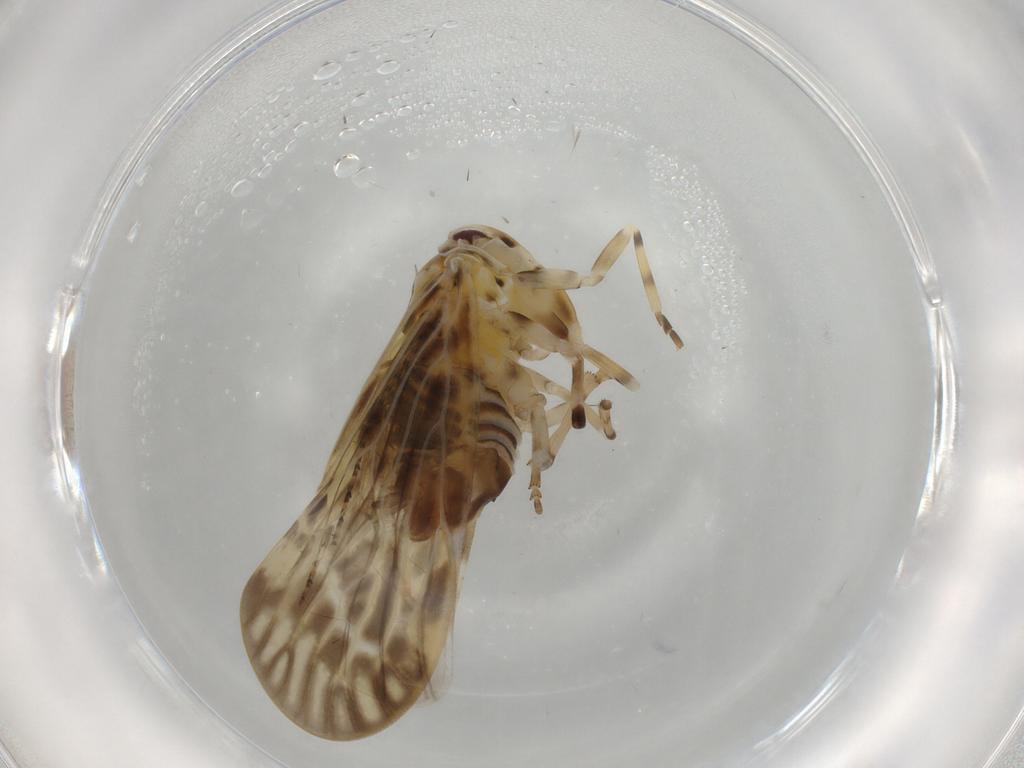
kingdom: Animalia
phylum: Arthropoda
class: Insecta
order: Hemiptera
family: Derbidae
